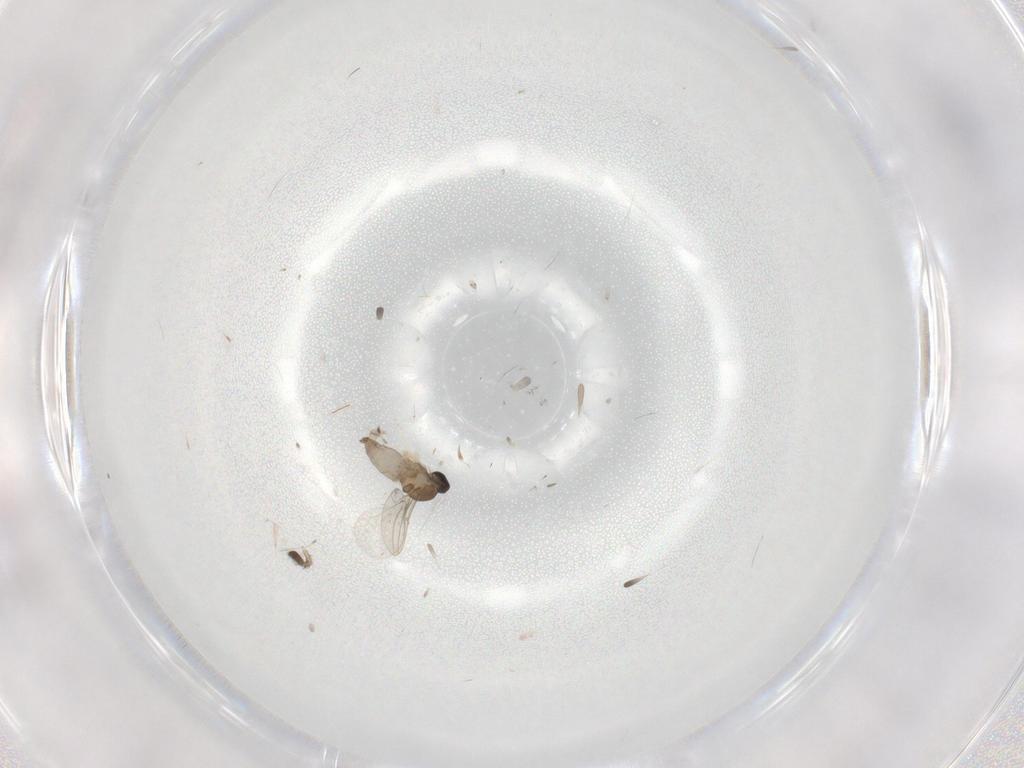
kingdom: Animalia
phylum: Arthropoda
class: Insecta
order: Diptera
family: Cecidomyiidae
